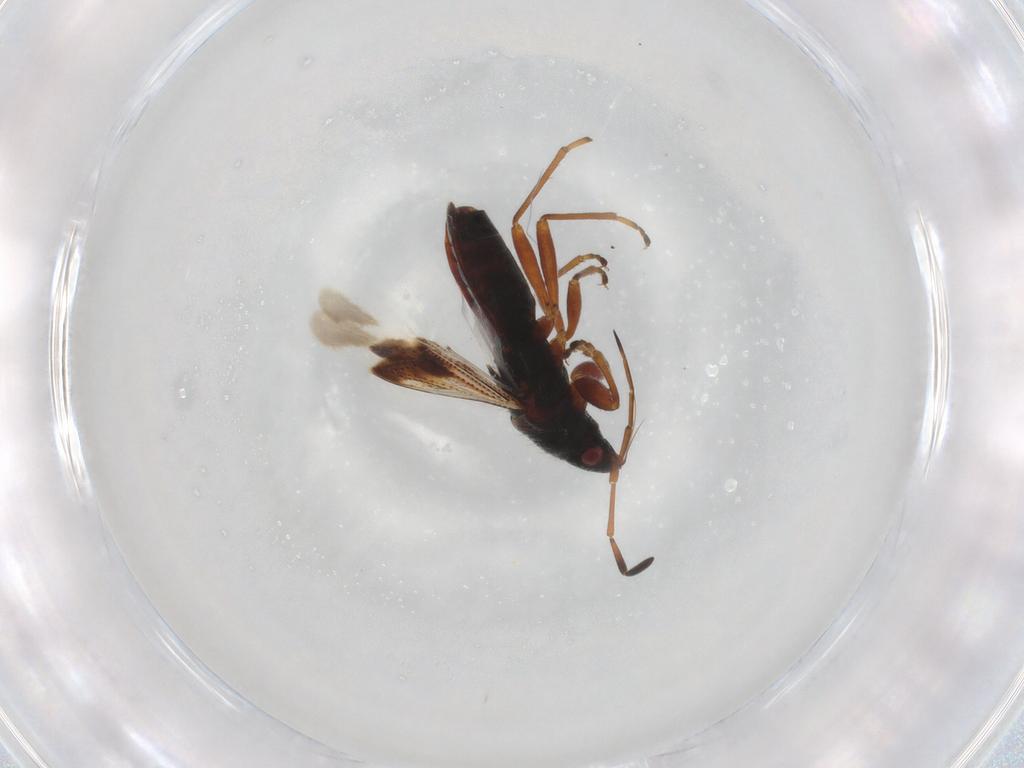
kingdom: Animalia
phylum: Arthropoda
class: Insecta
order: Hemiptera
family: Rhyparochromidae
